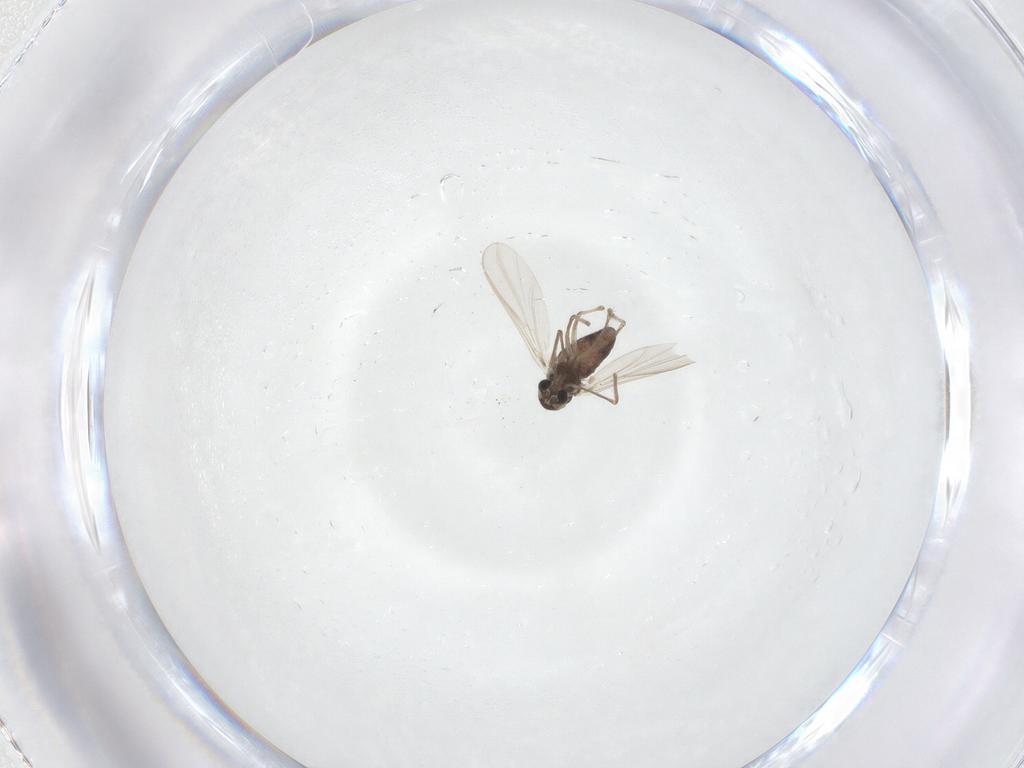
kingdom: Animalia
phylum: Arthropoda
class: Insecta
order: Diptera
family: Chironomidae
